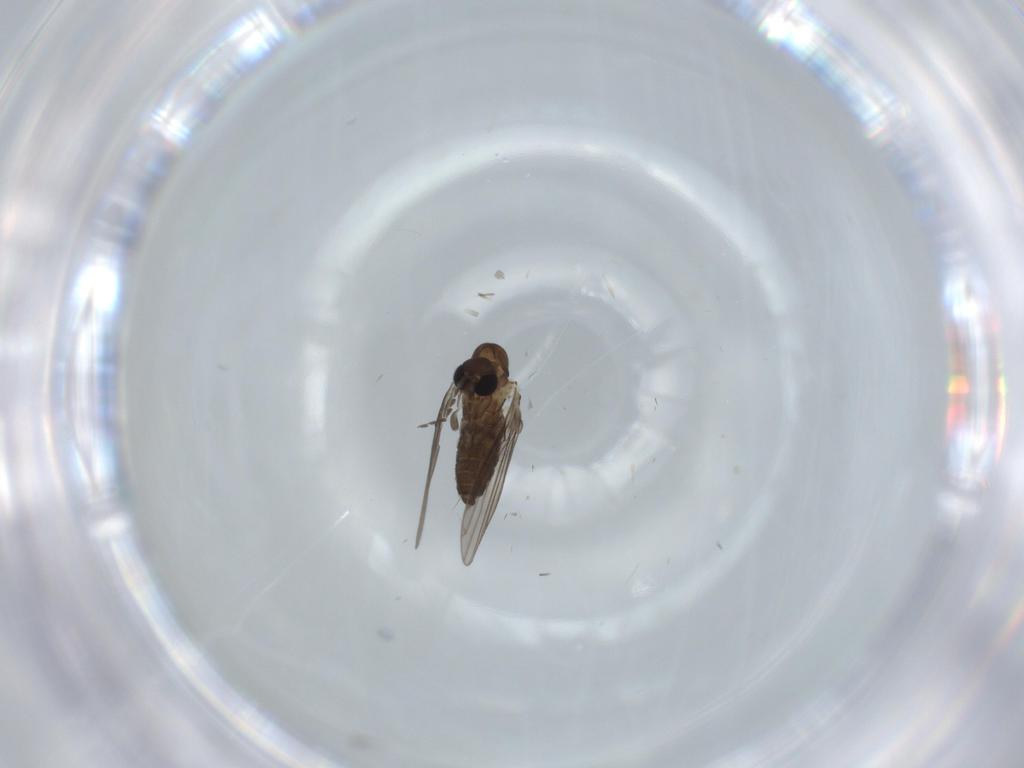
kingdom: Animalia
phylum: Arthropoda
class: Insecta
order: Diptera
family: Psychodidae
